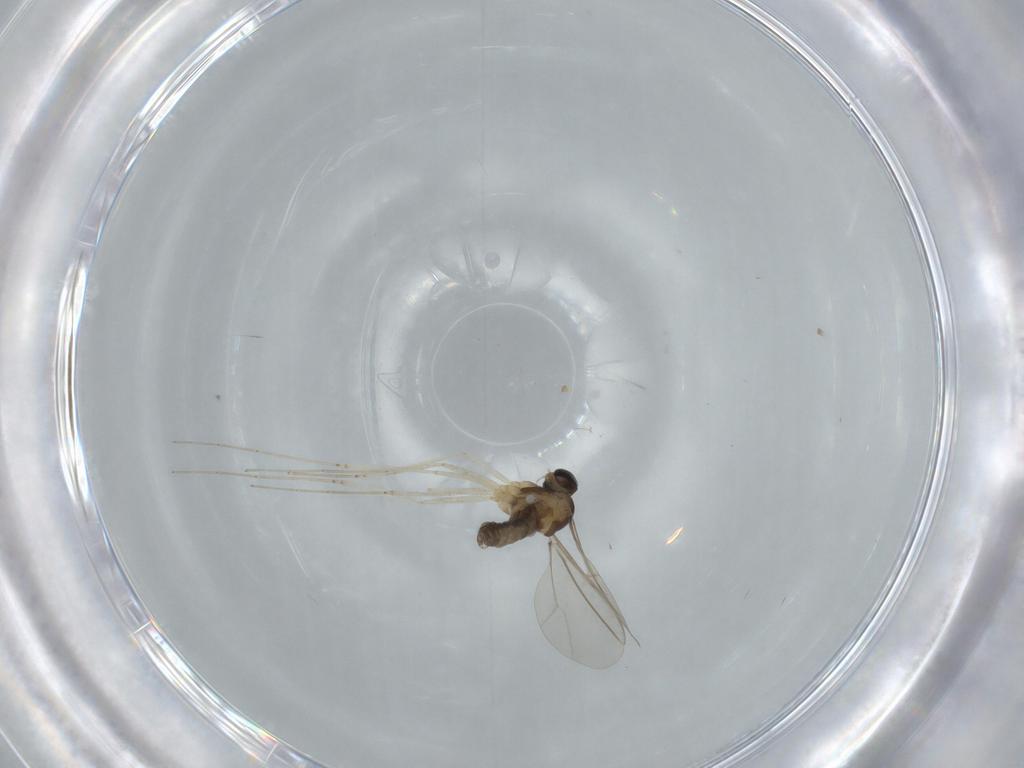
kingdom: Animalia
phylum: Arthropoda
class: Insecta
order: Diptera
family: Cecidomyiidae
